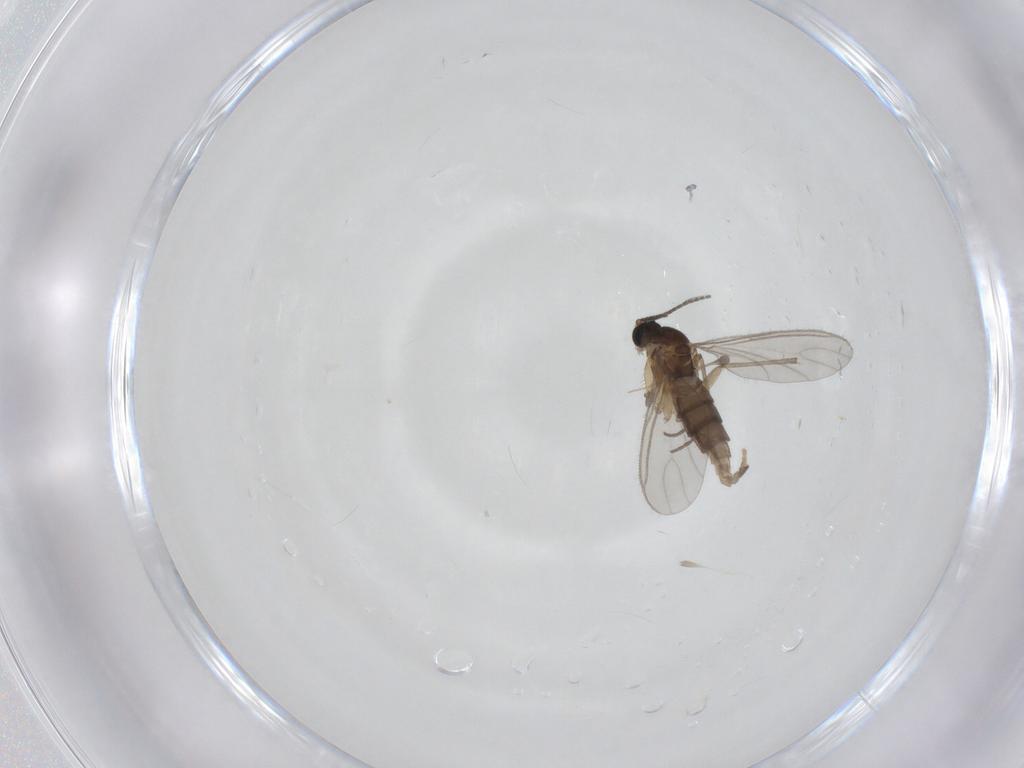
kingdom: Animalia
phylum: Arthropoda
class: Insecta
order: Diptera
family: Sciaridae
